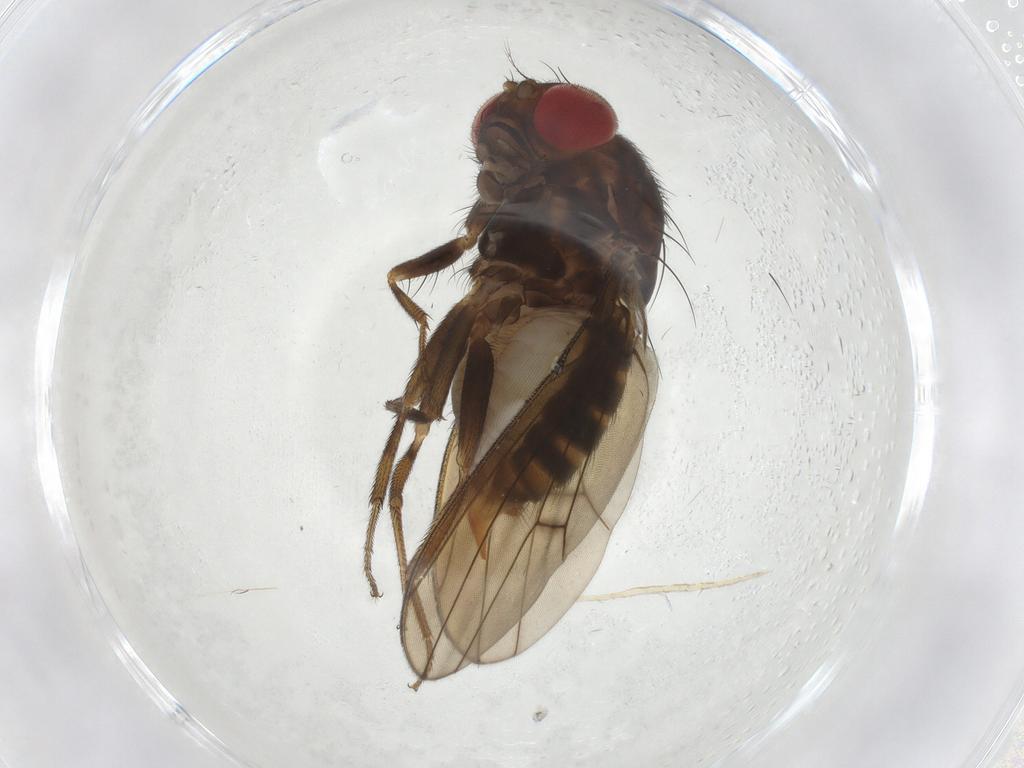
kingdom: Animalia
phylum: Arthropoda
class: Insecta
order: Diptera
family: Drosophilidae
